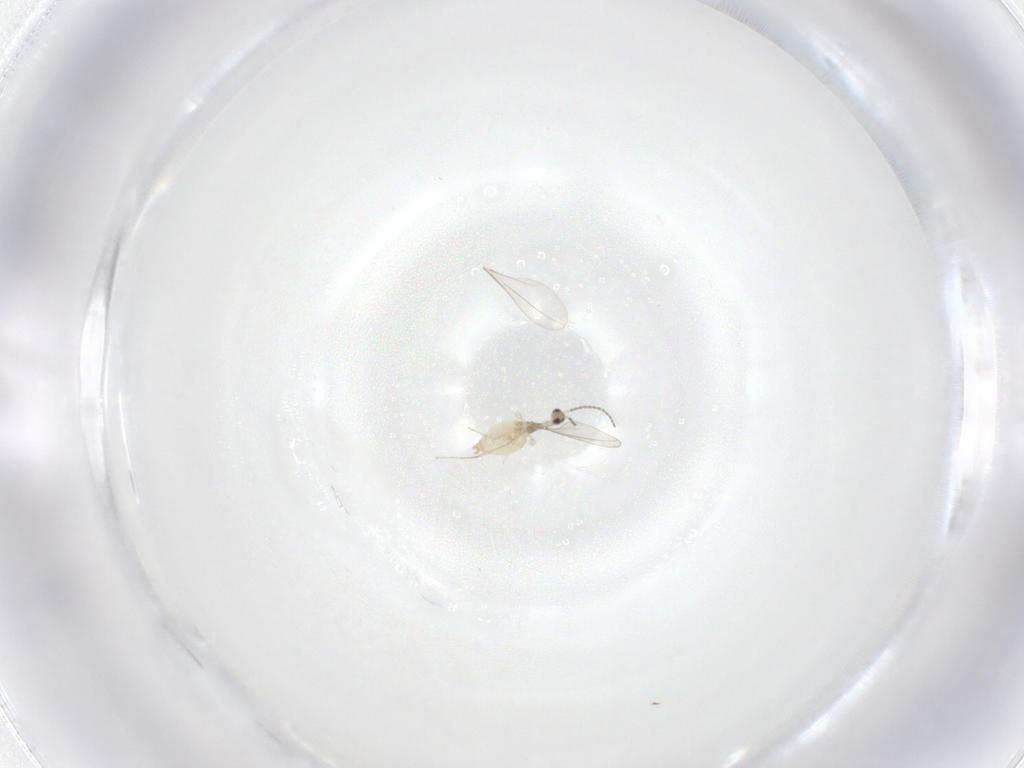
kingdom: Animalia
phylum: Arthropoda
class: Insecta
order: Diptera
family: Cecidomyiidae
